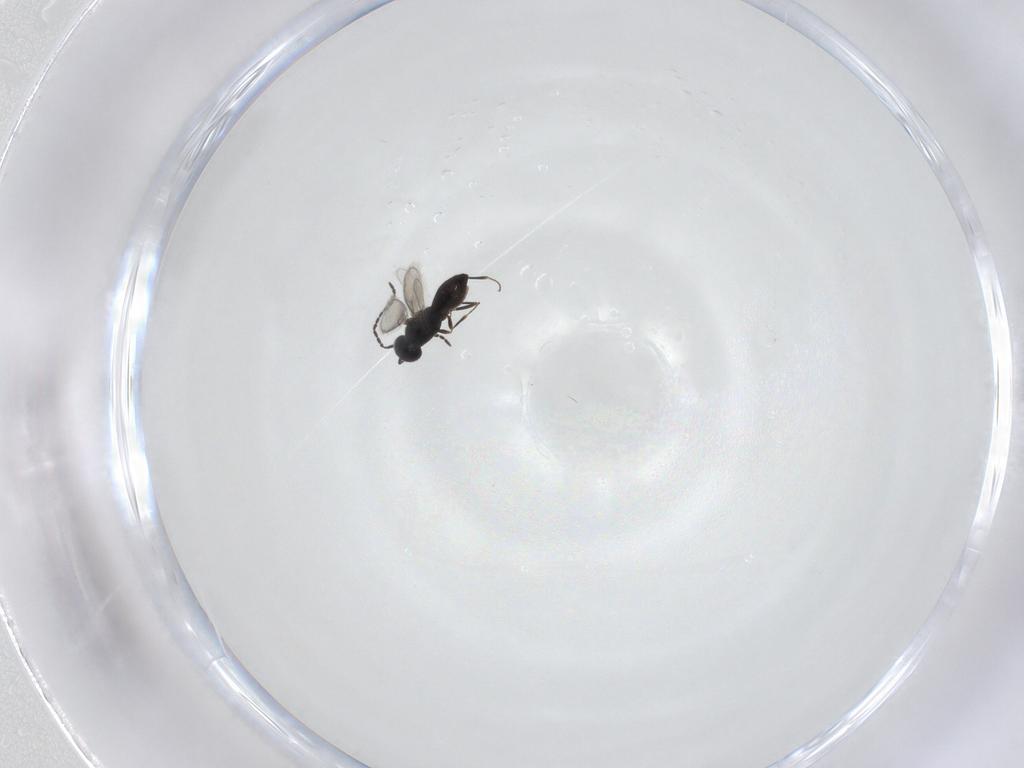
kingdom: Animalia
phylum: Arthropoda
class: Insecta
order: Hymenoptera
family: Scelionidae
